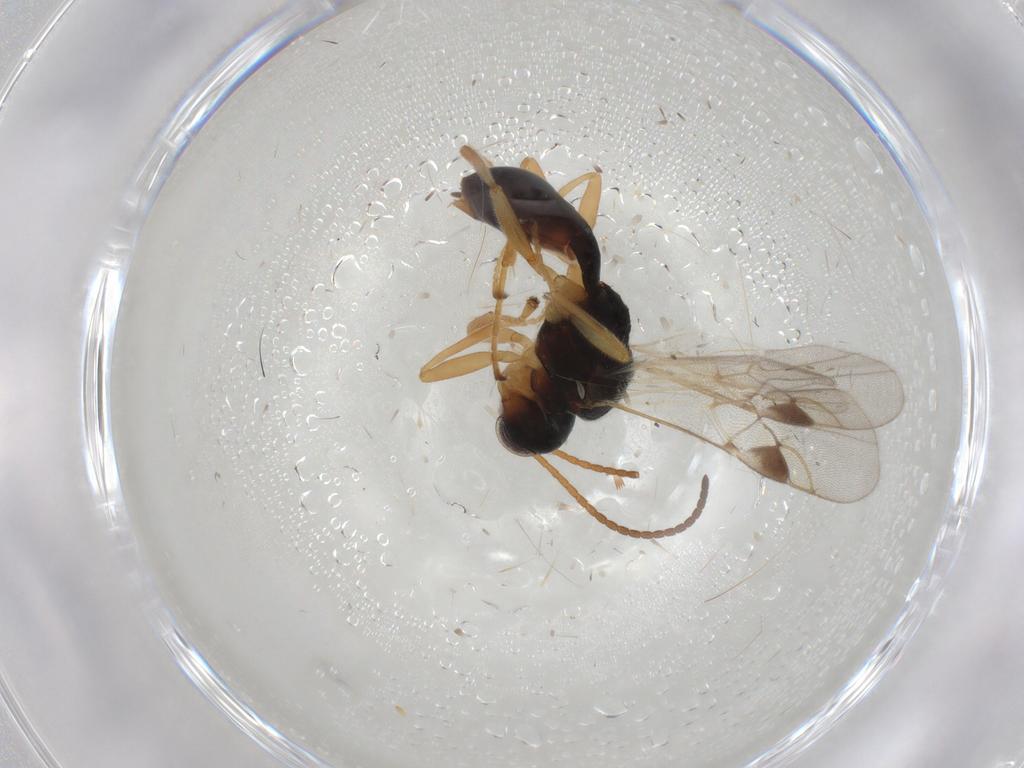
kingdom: Animalia
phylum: Arthropoda
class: Insecta
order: Hymenoptera
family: Braconidae
